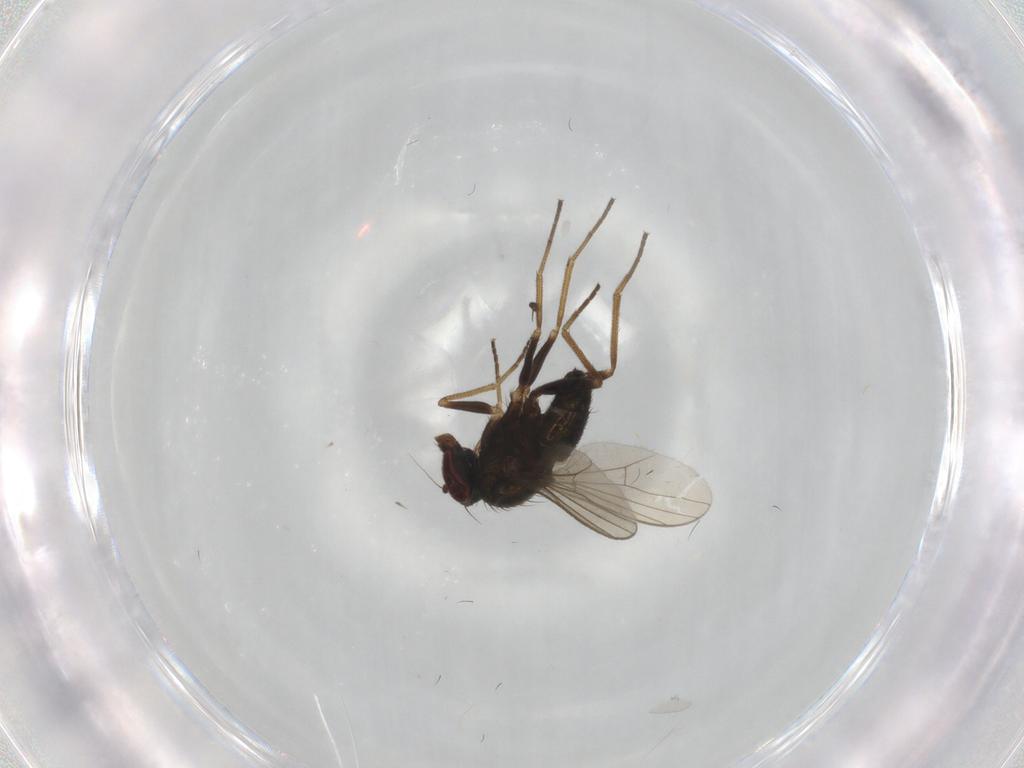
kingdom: Animalia
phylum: Arthropoda
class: Insecta
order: Diptera
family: Dolichopodidae
